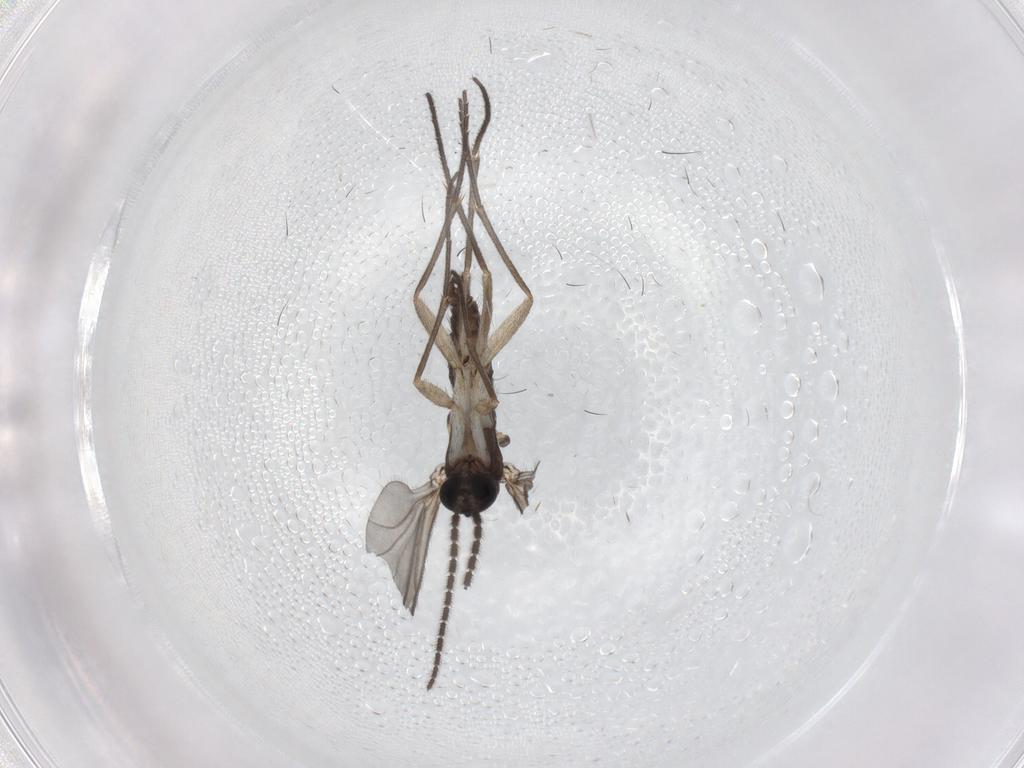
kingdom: Animalia
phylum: Arthropoda
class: Insecta
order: Diptera
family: Sciaridae
